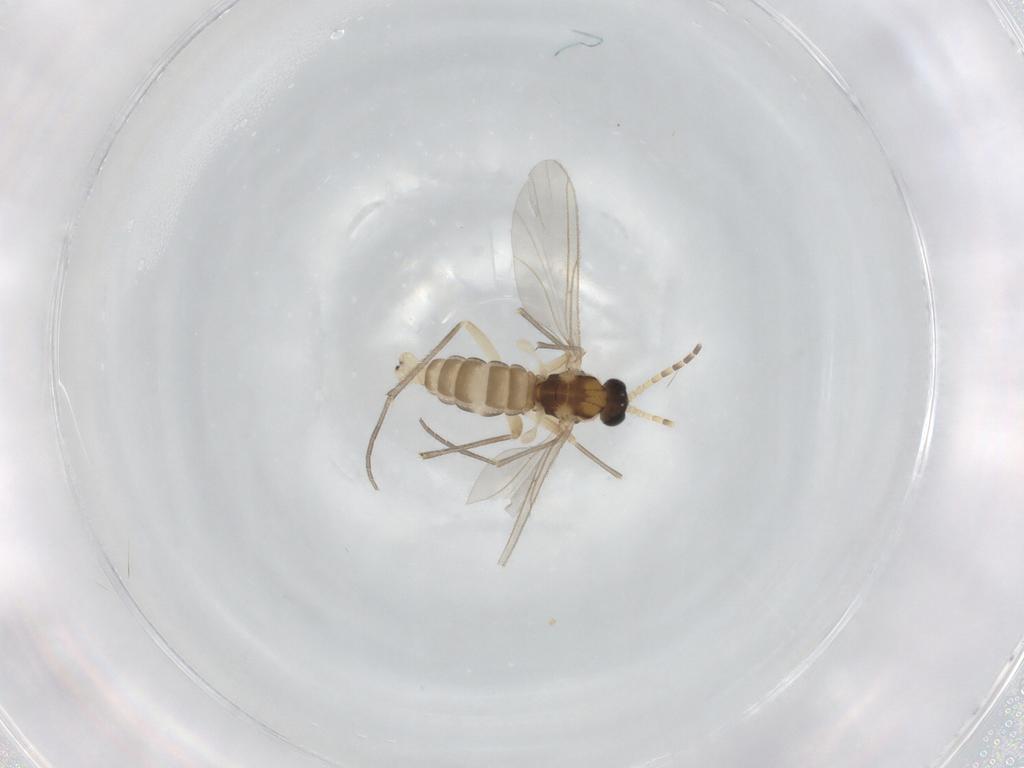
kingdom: Animalia
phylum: Arthropoda
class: Insecta
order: Diptera
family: Sciaridae
